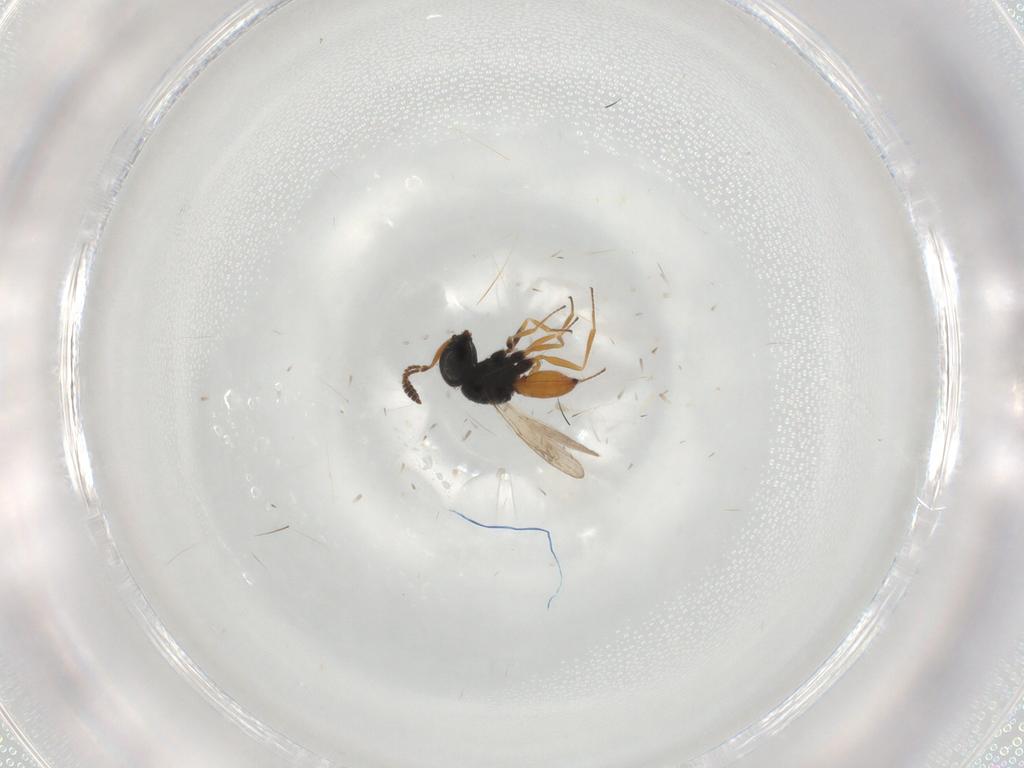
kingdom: Animalia
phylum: Arthropoda
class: Insecta
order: Hymenoptera
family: Scelionidae
